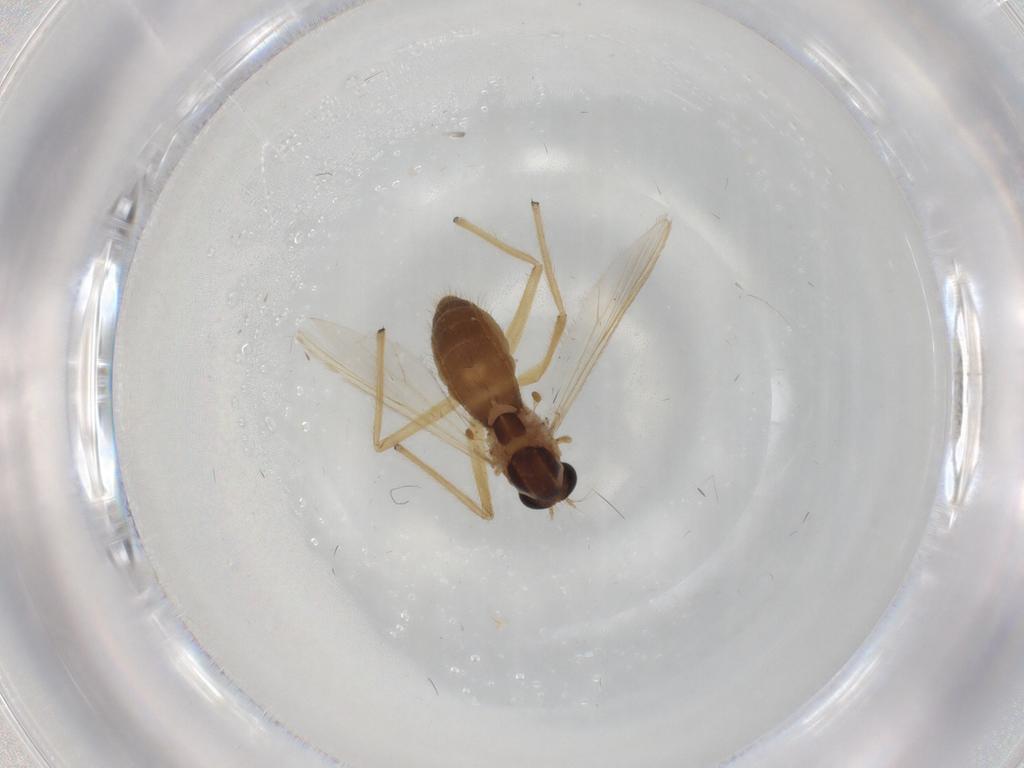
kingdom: Animalia
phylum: Arthropoda
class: Insecta
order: Diptera
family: Chironomidae
